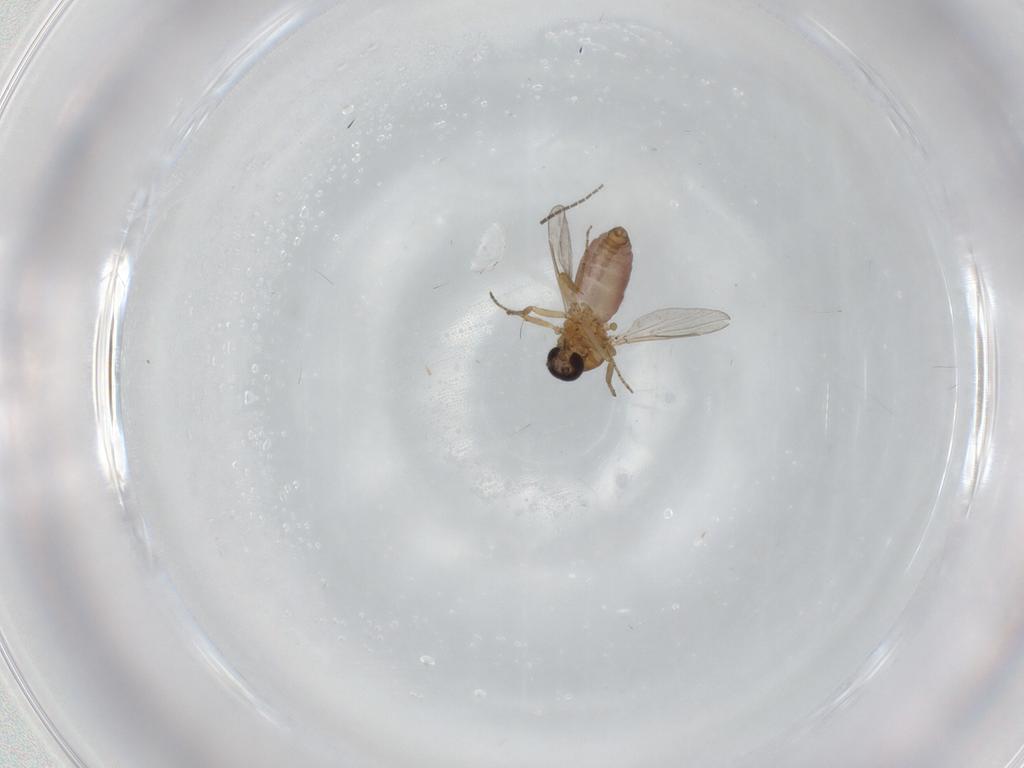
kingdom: Animalia
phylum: Arthropoda
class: Insecta
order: Diptera
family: Ceratopogonidae
